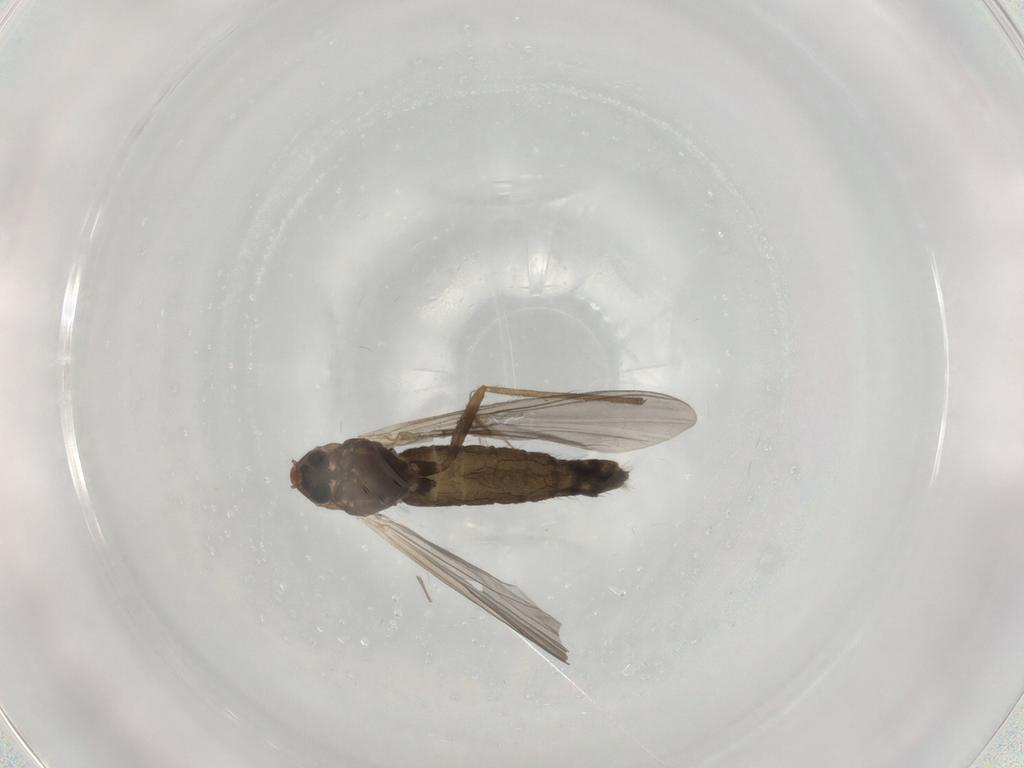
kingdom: Animalia
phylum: Arthropoda
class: Insecta
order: Diptera
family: Chironomidae
